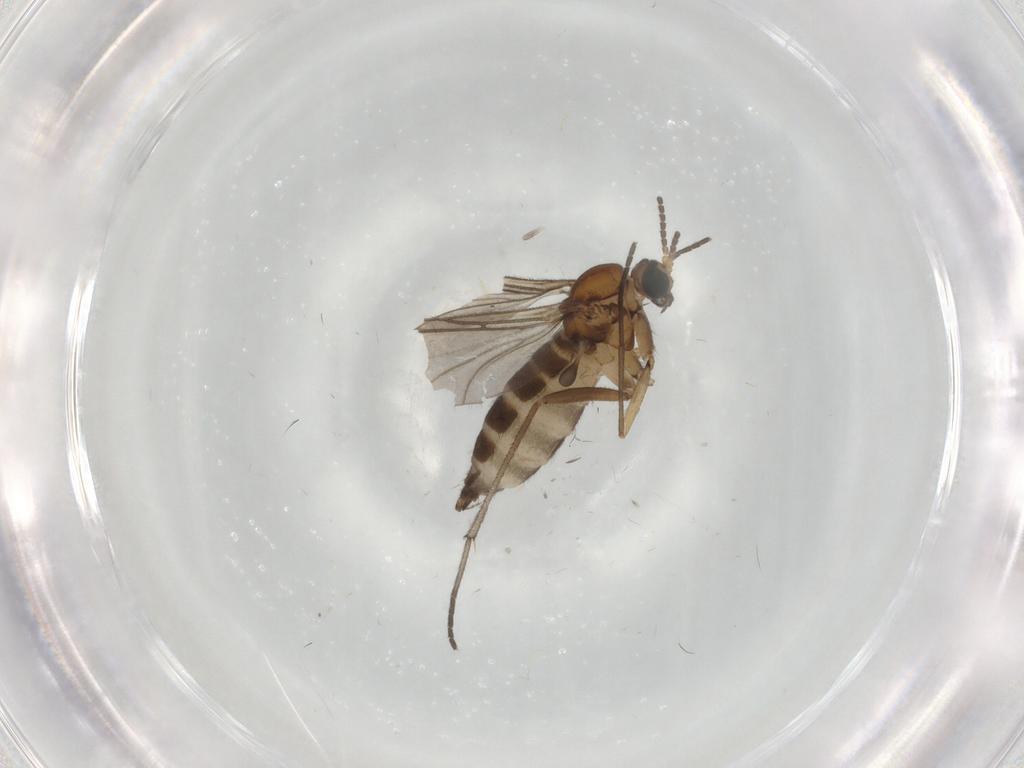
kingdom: Animalia
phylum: Arthropoda
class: Insecta
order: Diptera
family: Sciaridae
